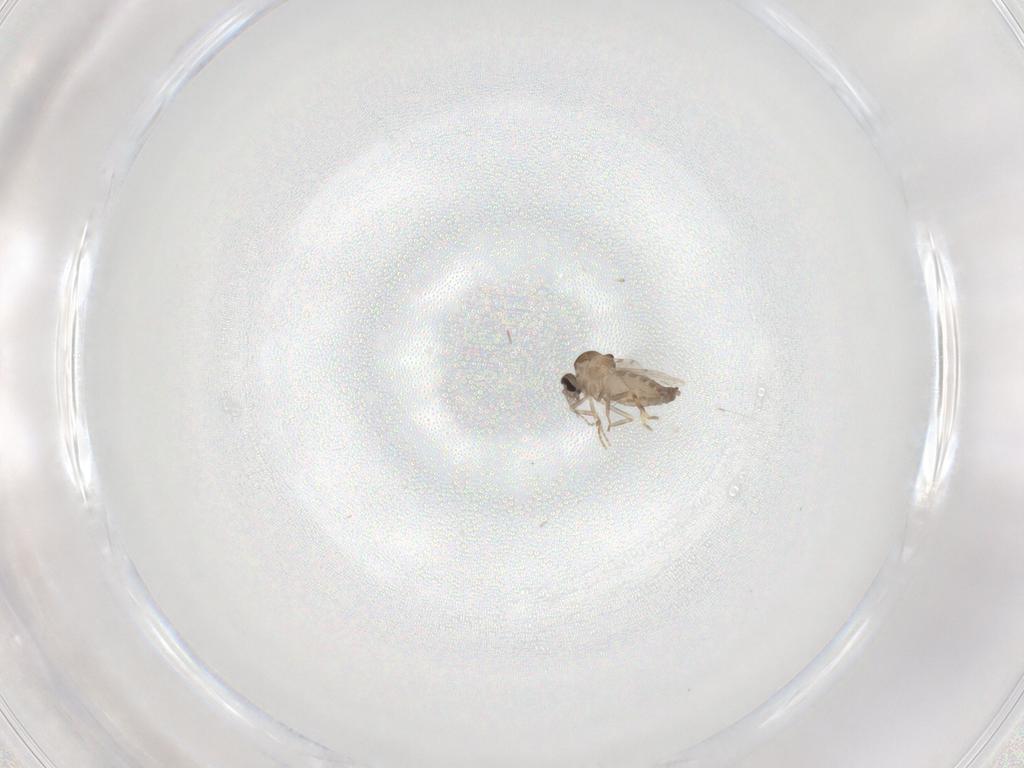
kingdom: Animalia
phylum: Arthropoda
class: Insecta
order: Diptera
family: Ceratopogonidae
